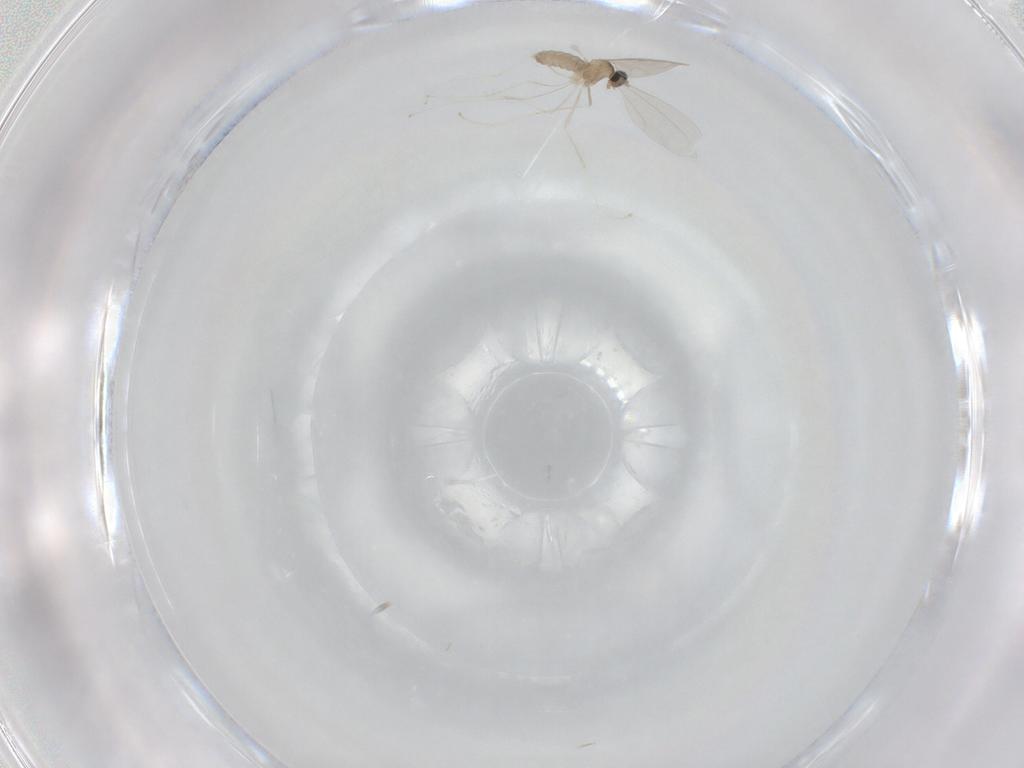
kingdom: Animalia
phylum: Arthropoda
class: Insecta
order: Diptera
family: Cecidomyiidae
